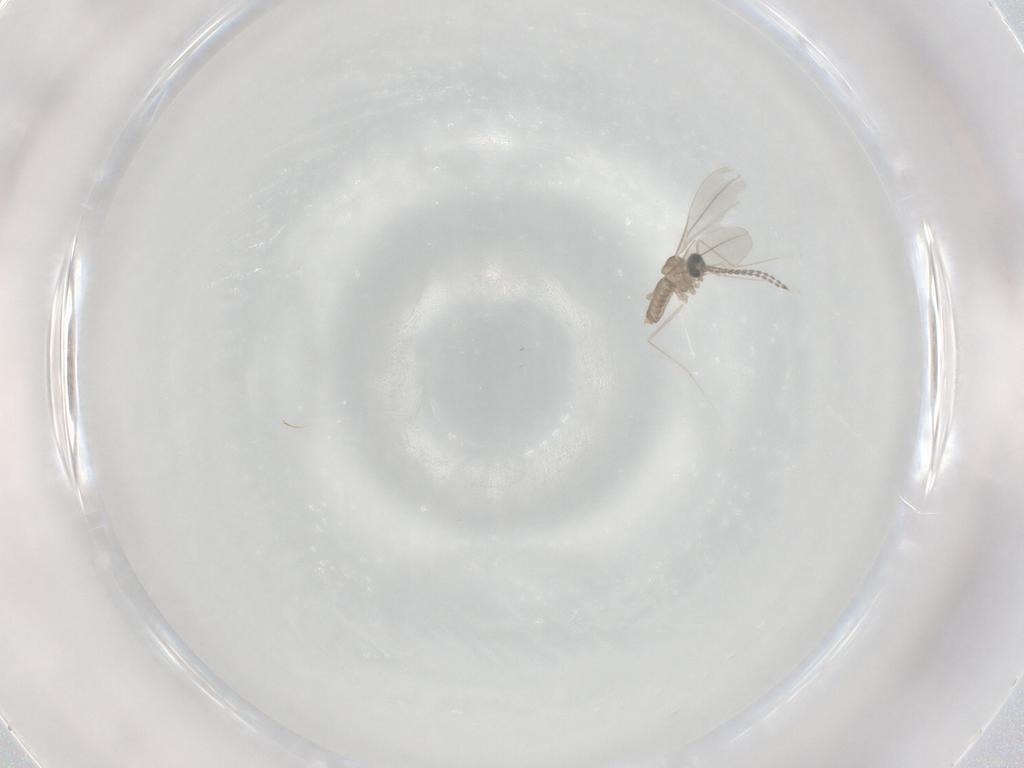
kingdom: Animalia
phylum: Arthropoda
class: Insecta
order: Diptera
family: Cecidomyiidae
